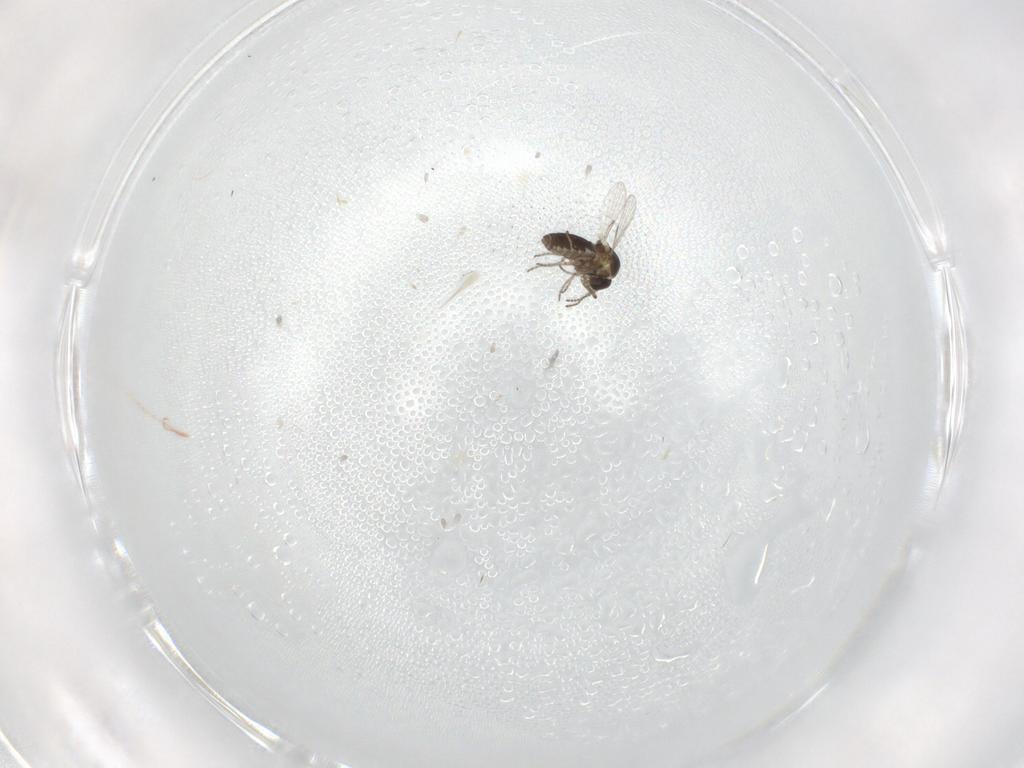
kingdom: Animalia
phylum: Arthropoda
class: Insecta
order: Diptera
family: Ceratopogonidae
